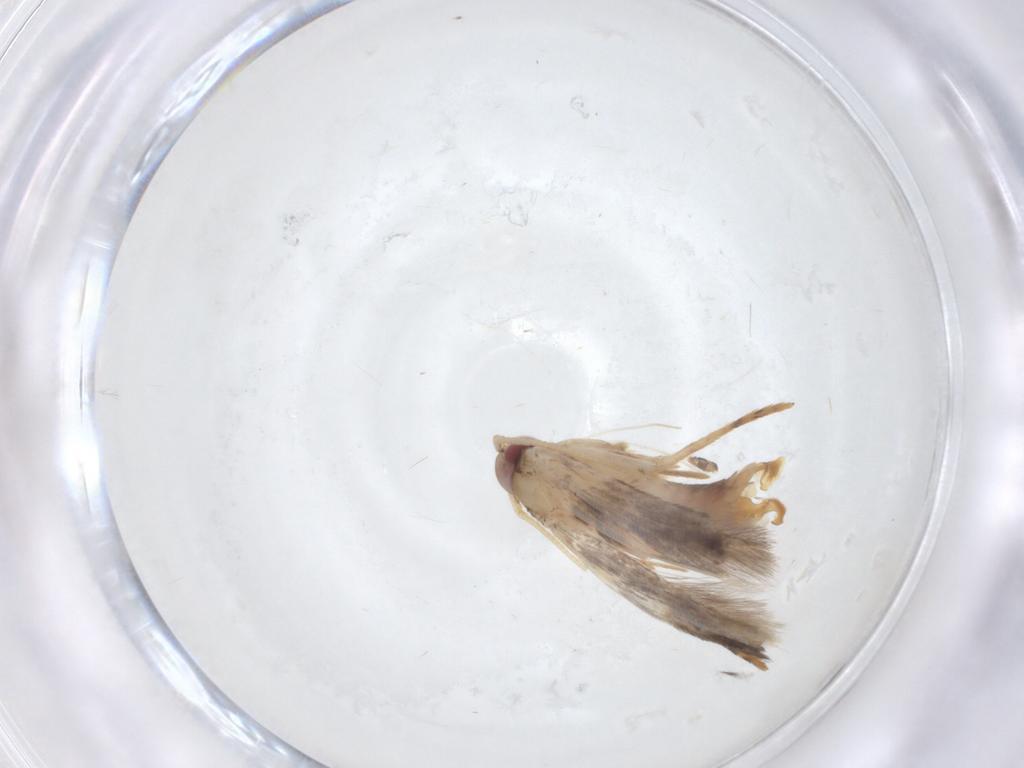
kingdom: Animalia
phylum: Arthropoda
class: Insecta
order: Lepidoptera
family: Cosmopterigidae
